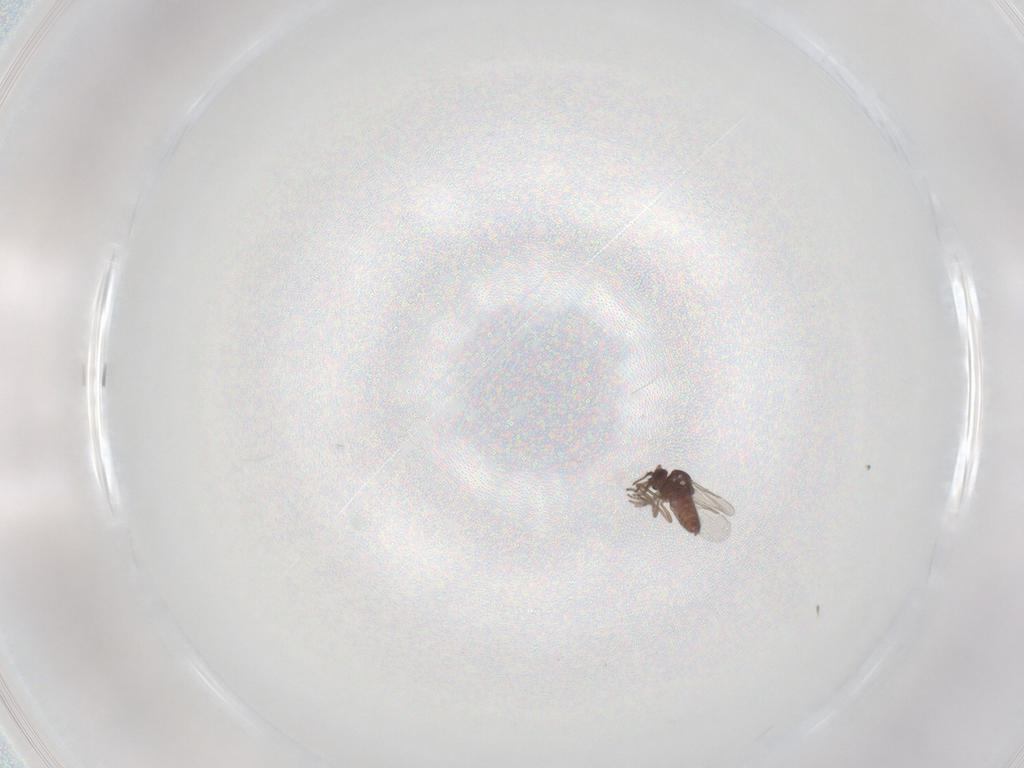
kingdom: Animalia
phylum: Arthropoda
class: Insecta
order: Diptera
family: Ceratopogonidae
